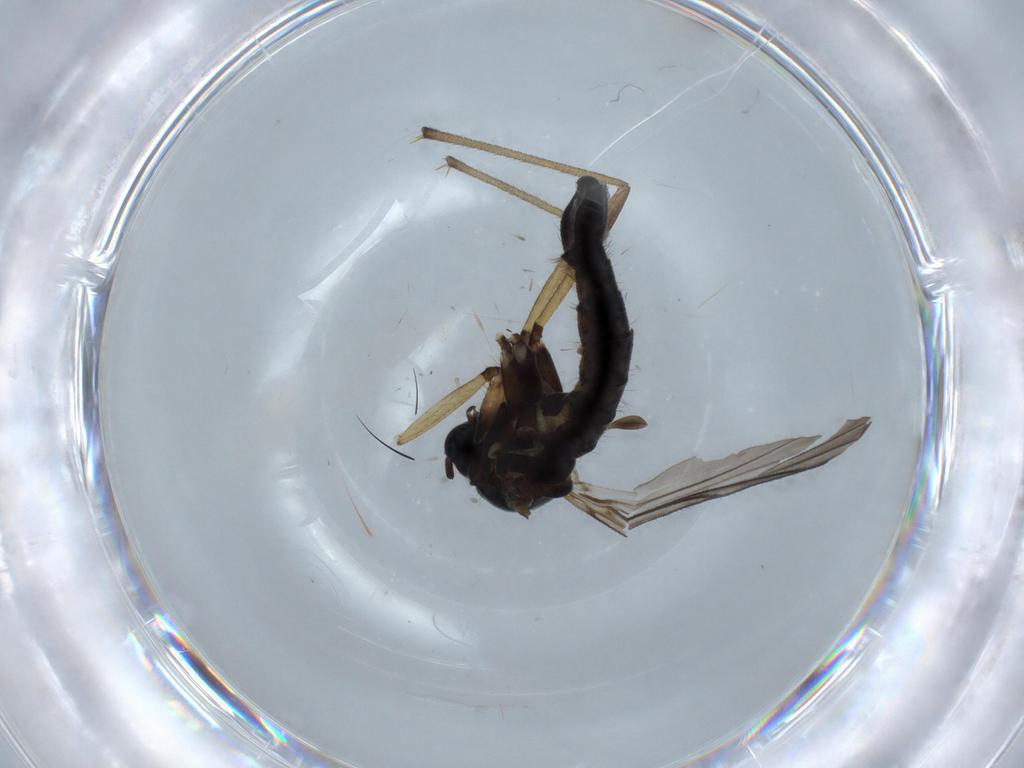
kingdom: Animalia
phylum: Arthropoda
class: Insecta
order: Diptera
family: Sciaridae
